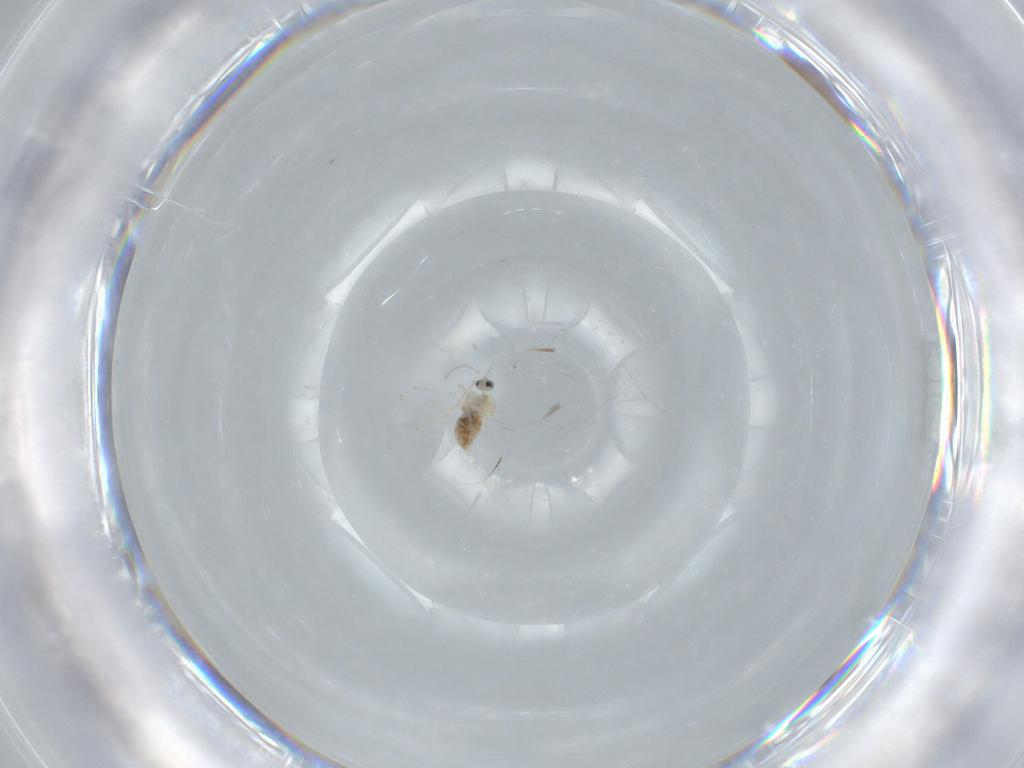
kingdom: Animalia
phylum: Arthropoda
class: Insecta
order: Diptera
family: Cecidomyiidae
